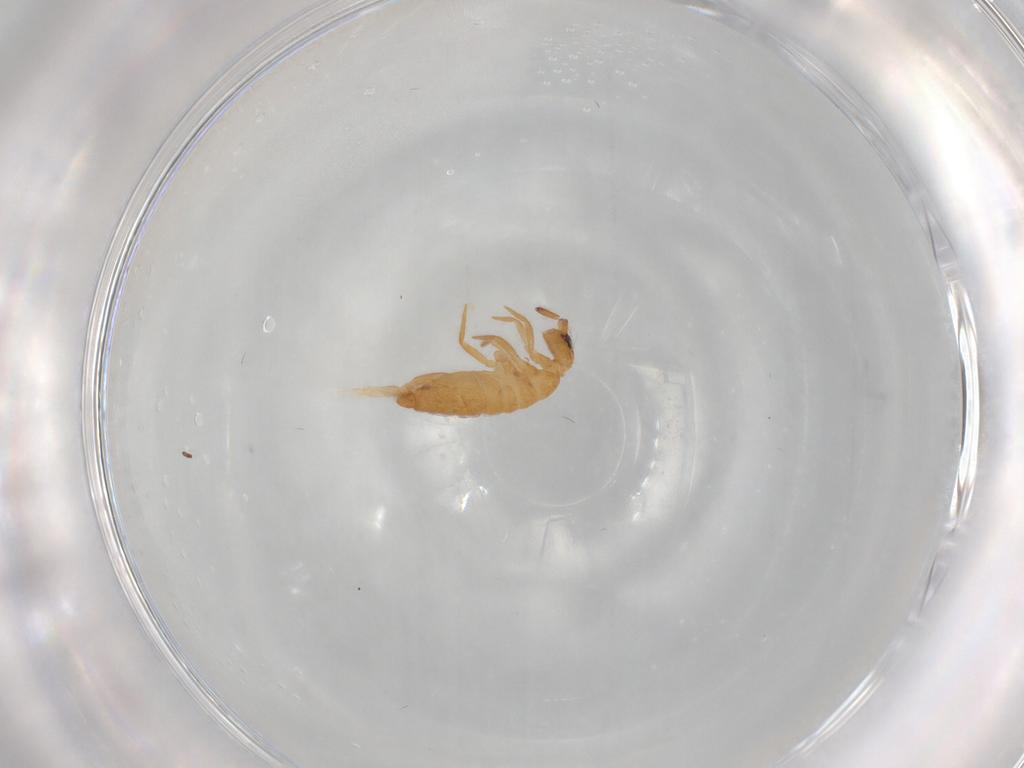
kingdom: Animalia
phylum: Arthropoda
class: Collembola
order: Entomobryomorpha
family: Entomobryidae
